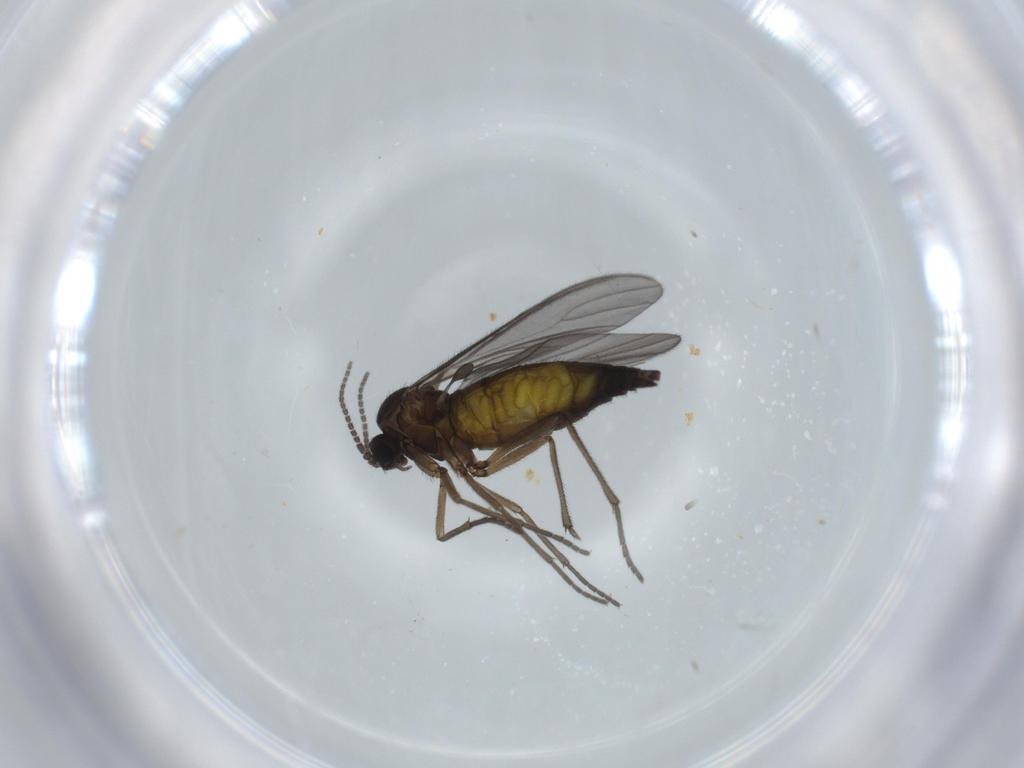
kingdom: Animalia
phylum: Arthropoda
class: Insecta
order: Diptera
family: Sciaridae
